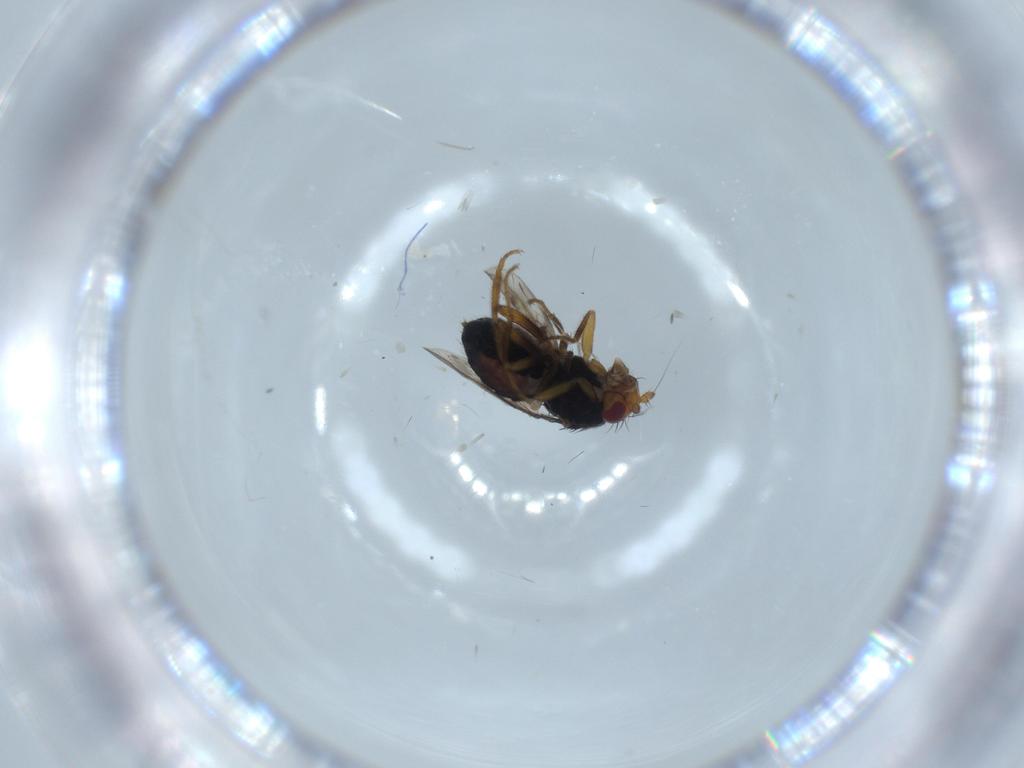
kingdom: Animalia
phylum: Arthropoda
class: Insecta
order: Diptera
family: Sphaeroceridae
